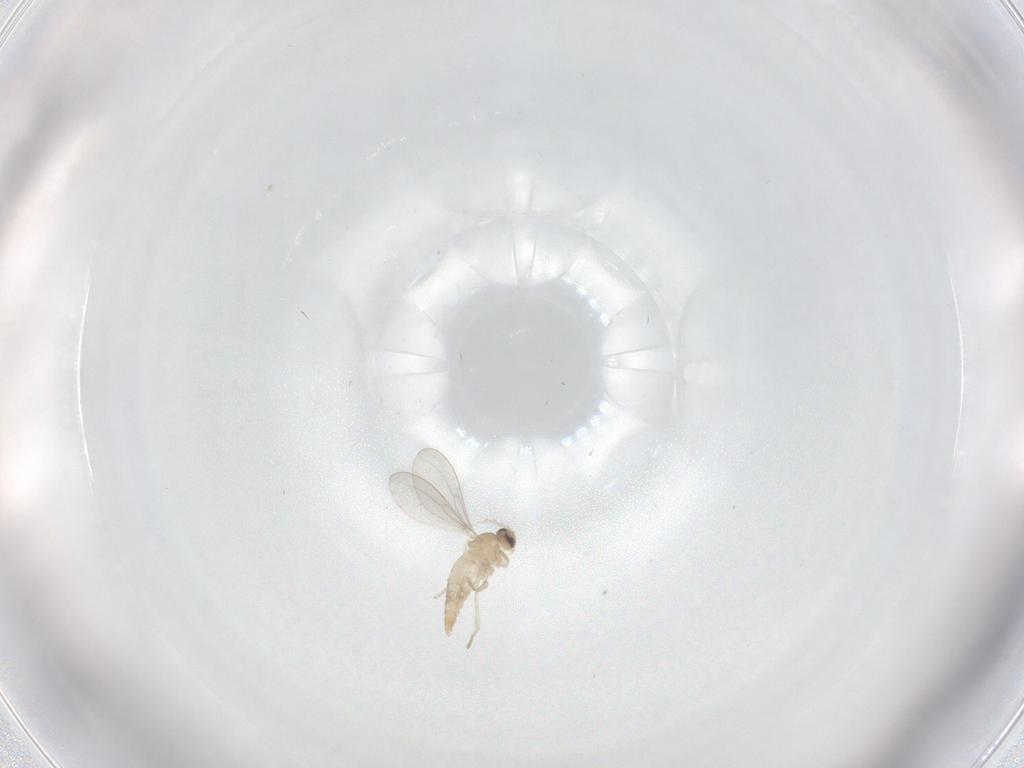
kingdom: Animalia
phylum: Arthropoda
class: Insecta
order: Diptera
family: Cecidomyiidae
